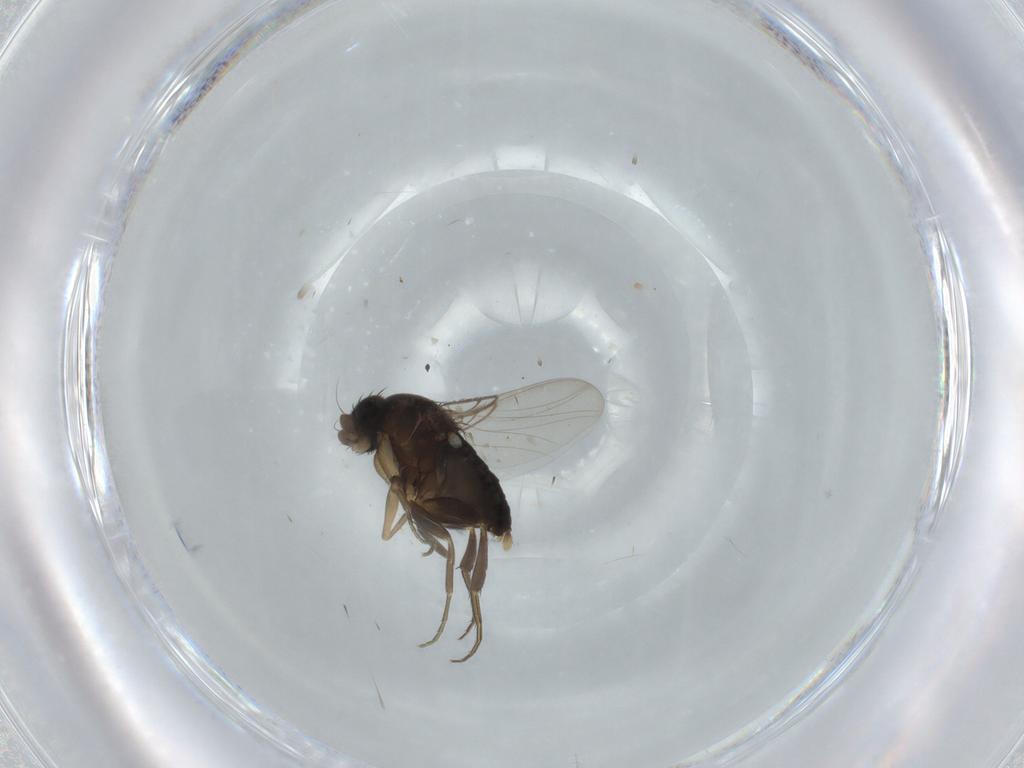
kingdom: Animalia
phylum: Arthropoda
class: Insecta
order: Diptera
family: Phoridae
